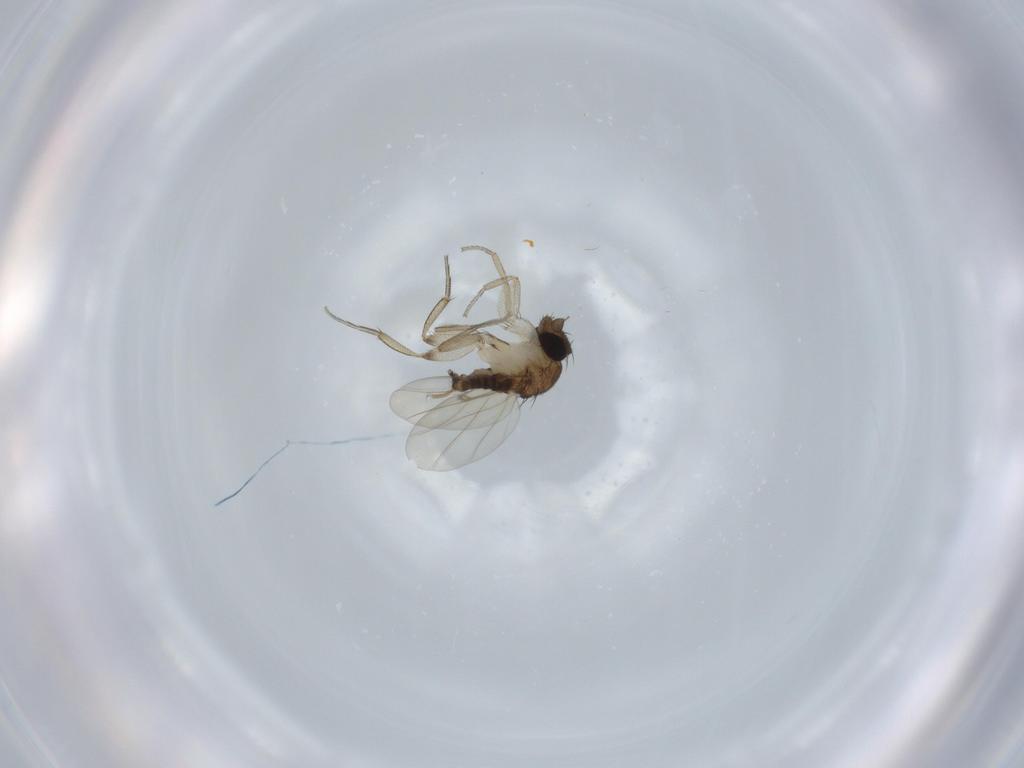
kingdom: Animalia
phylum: Arthropoda
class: Insecta
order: Diptera
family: Phoridae
